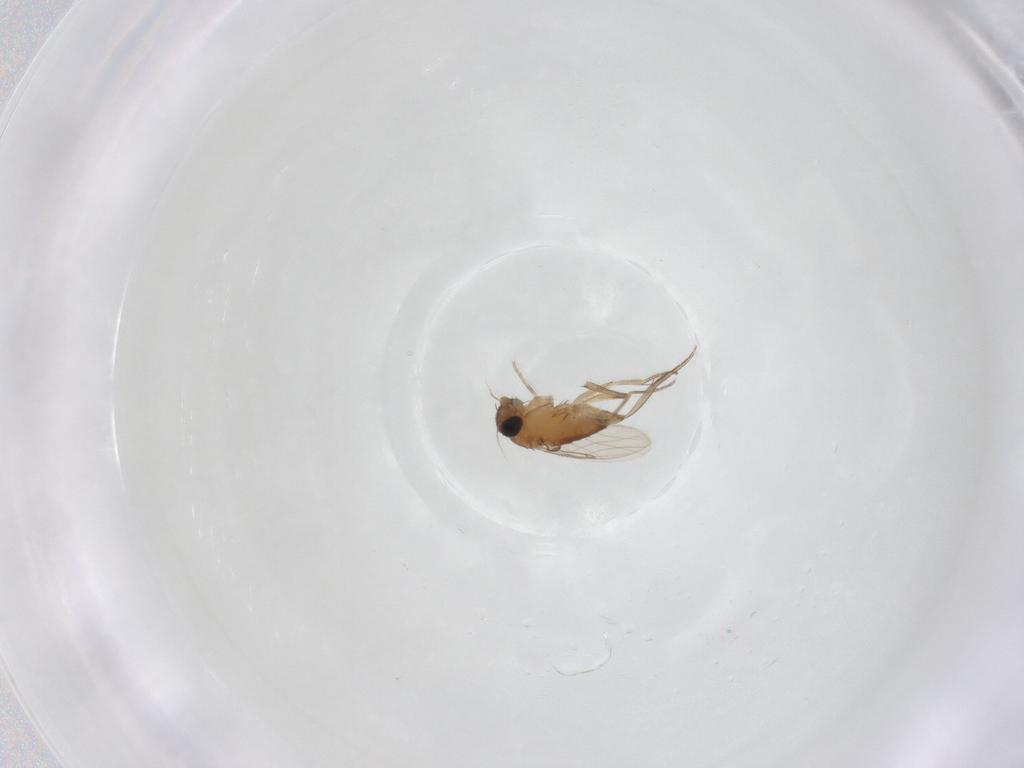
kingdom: Animalia
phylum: Arthropoda
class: Insecta
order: Diptera
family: Phoridae
